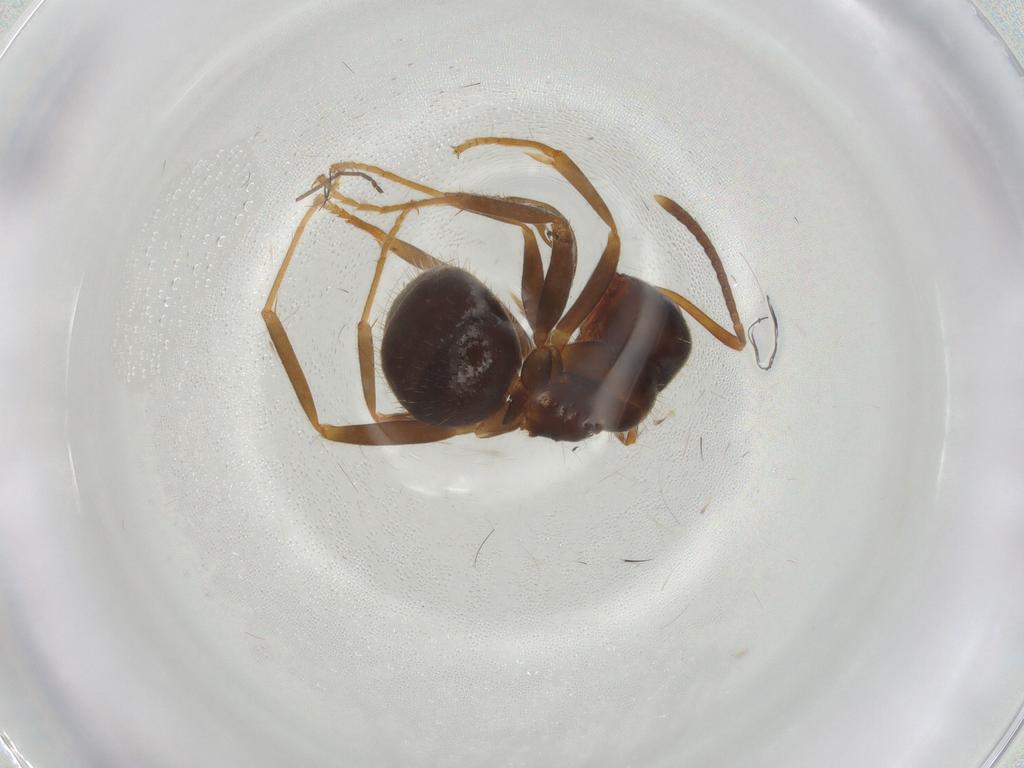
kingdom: Animalia
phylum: Arthropoda
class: Insecta
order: Hymenoptera
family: Formicidae
